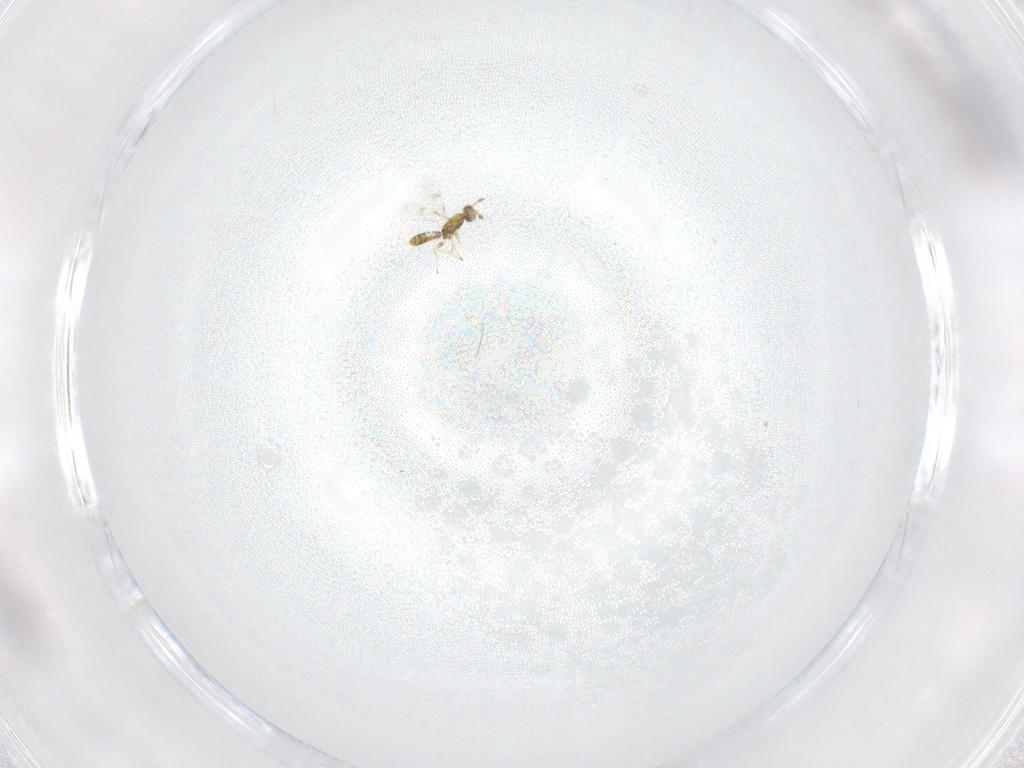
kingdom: Animalia
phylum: Arthropoda
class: Insecta
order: Hymenoptera
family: Eulophidae
